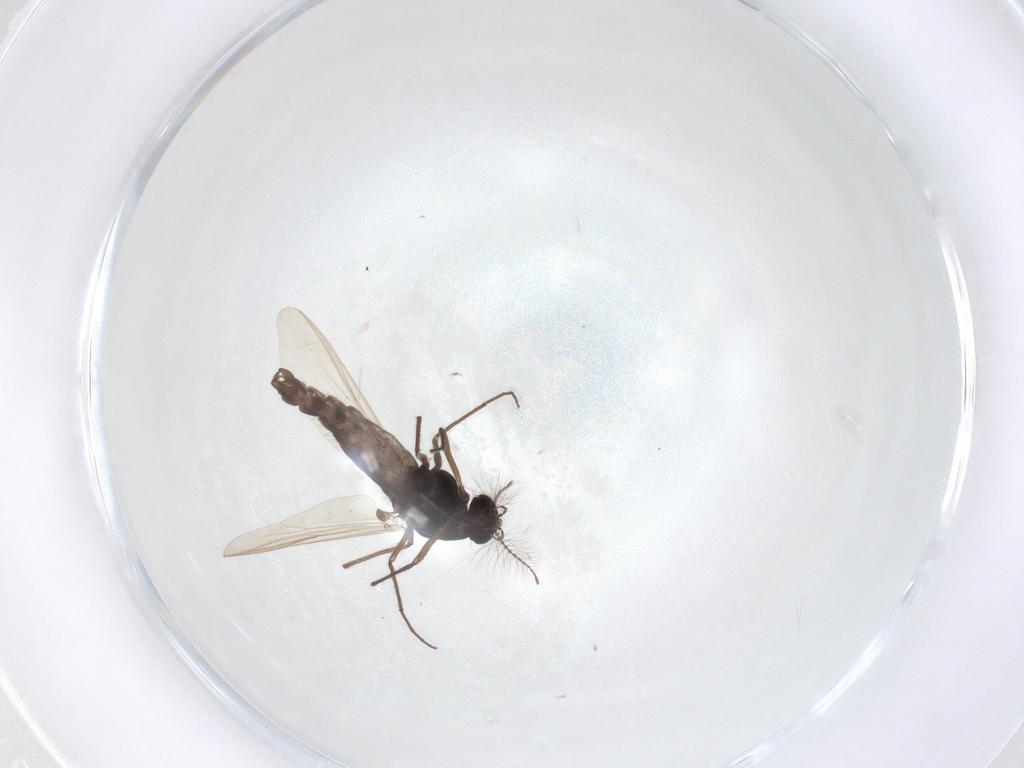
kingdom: Animalia
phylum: Arthropoda
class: Insecta
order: Diptera
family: Chironomidae
